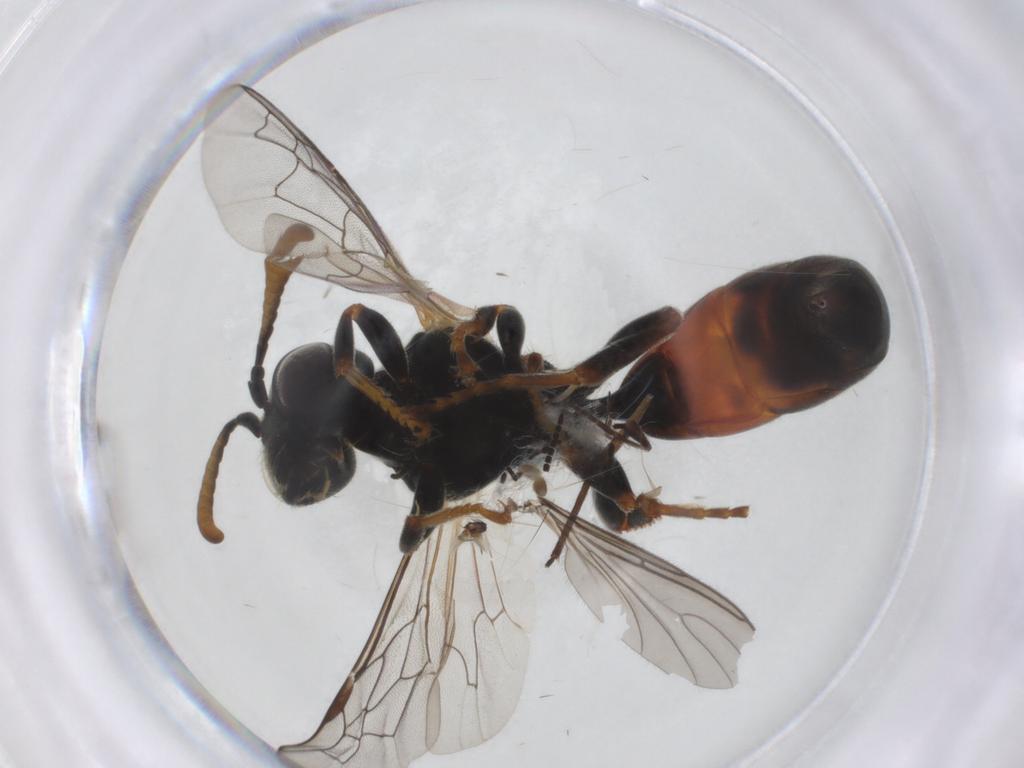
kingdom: Animalia
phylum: Arthropoda
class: Insecta
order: Hymenoptera
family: Psenidae
